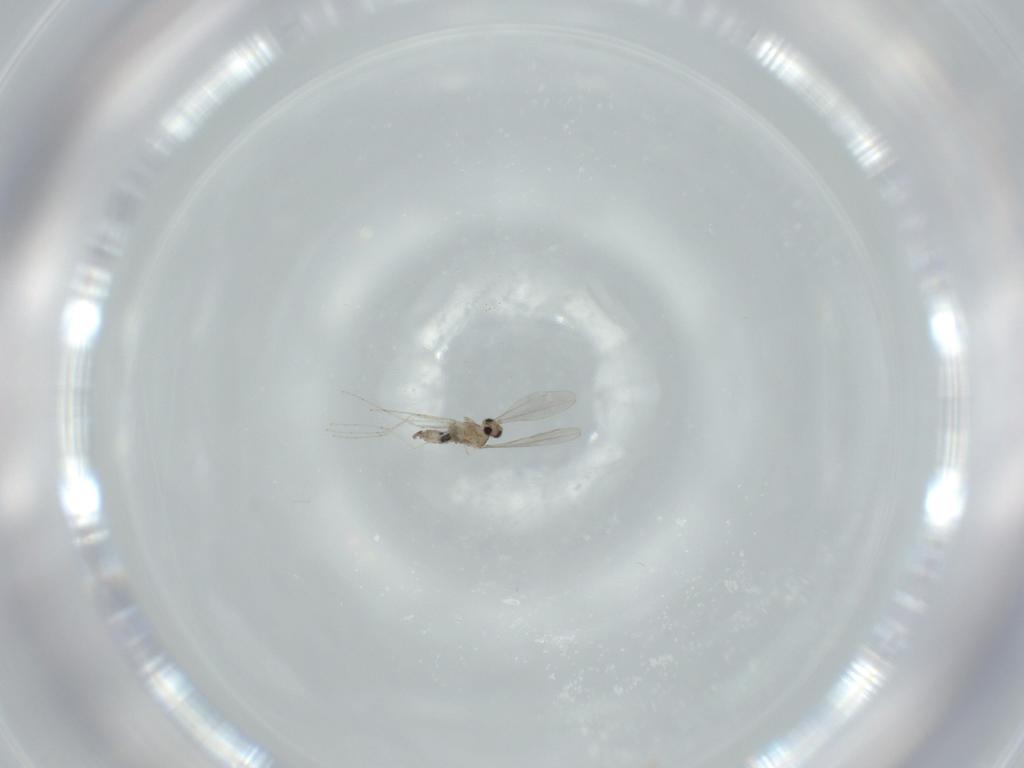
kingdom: Animalia
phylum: Arthropoda
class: Insecta
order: Diptera
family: Cecidomyiidae
